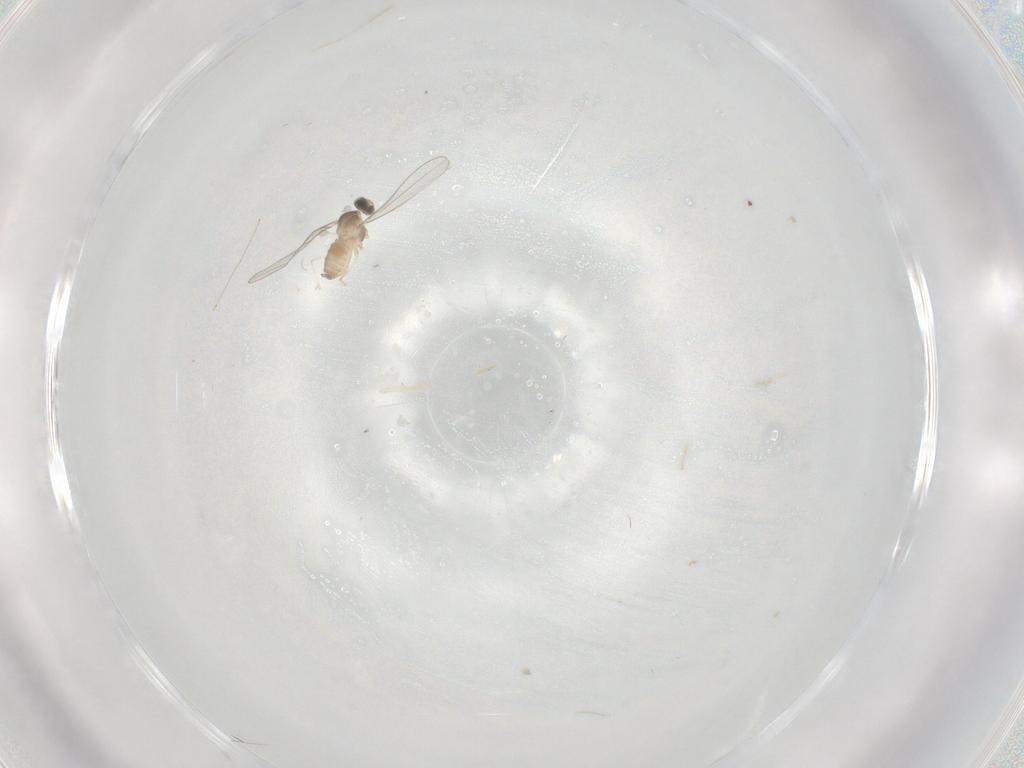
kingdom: Animalia
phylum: Arthropoda
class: Insecta
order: Diptera
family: Cecidomyiidae
